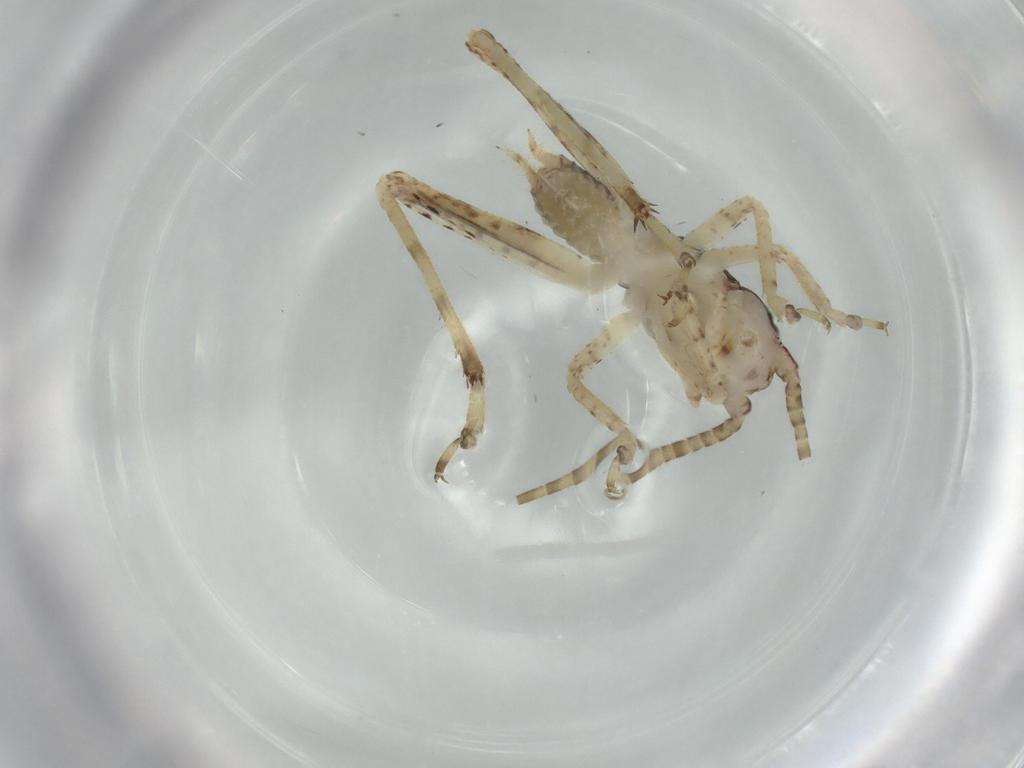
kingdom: Animalia
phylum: Arthropoda
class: Insecta
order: Orthoptera
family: Gryllidae
